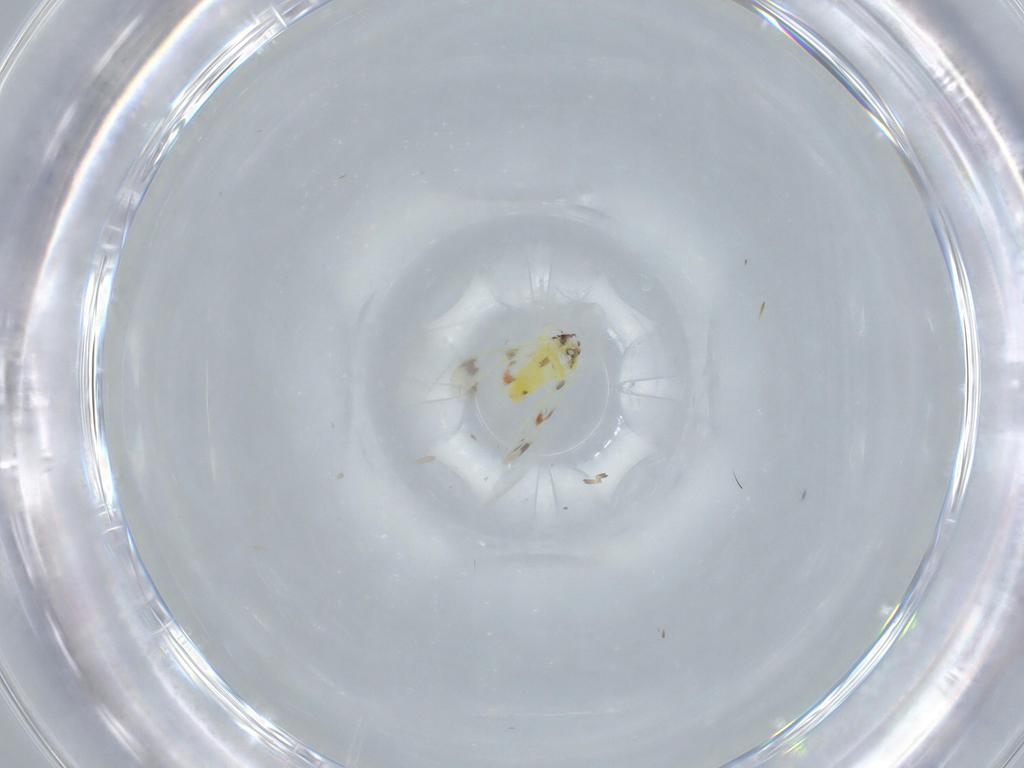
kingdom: Animalia
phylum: Arthropoda
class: Insecta
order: Hemiptera
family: Aleyrodidae
